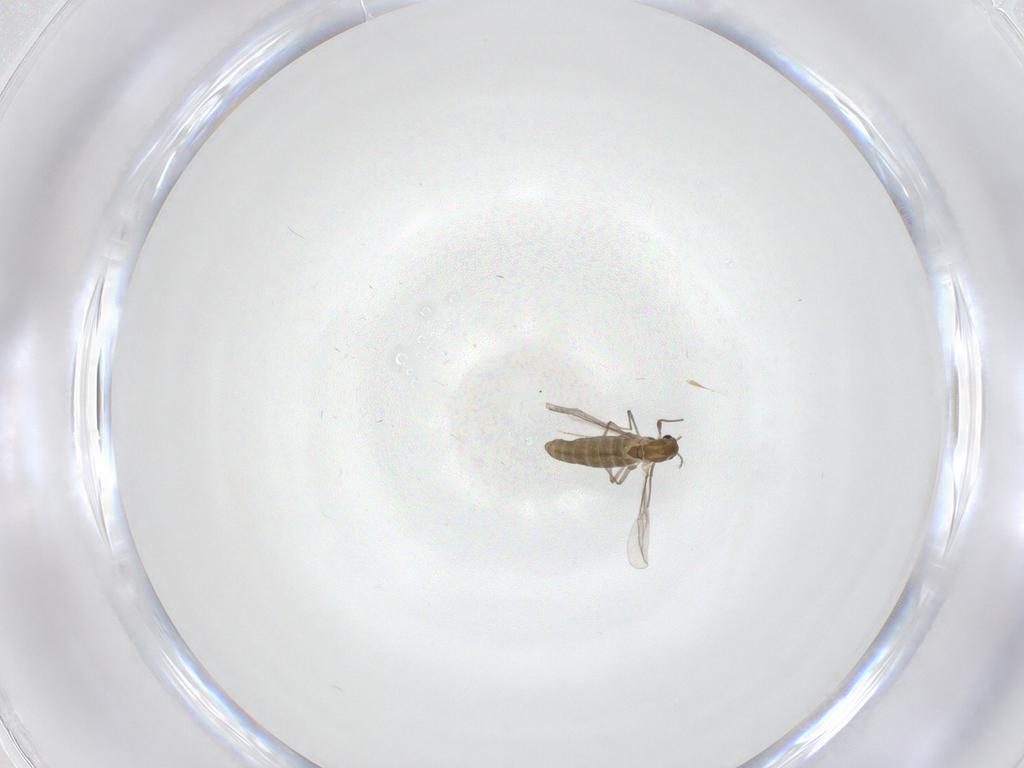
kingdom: Animalia
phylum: Arthropoda
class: Insecta
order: Diptera
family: Chironomidae
